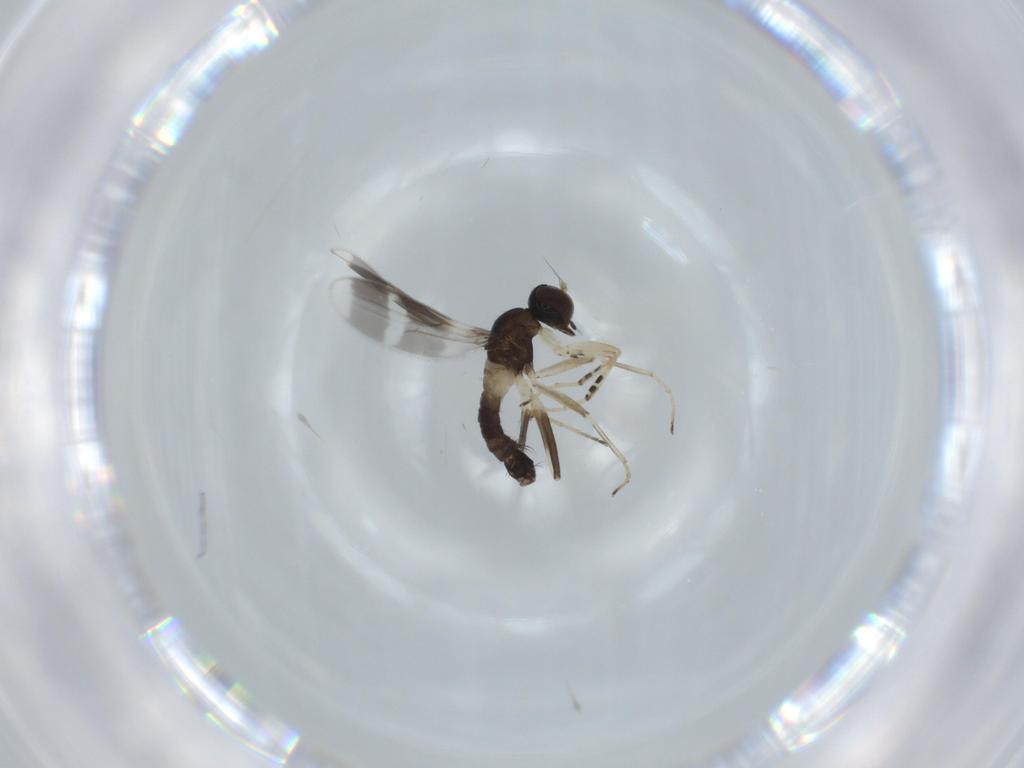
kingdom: Animalia
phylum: Arthropoda
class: Insecta
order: Diptera
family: Hybotidae
